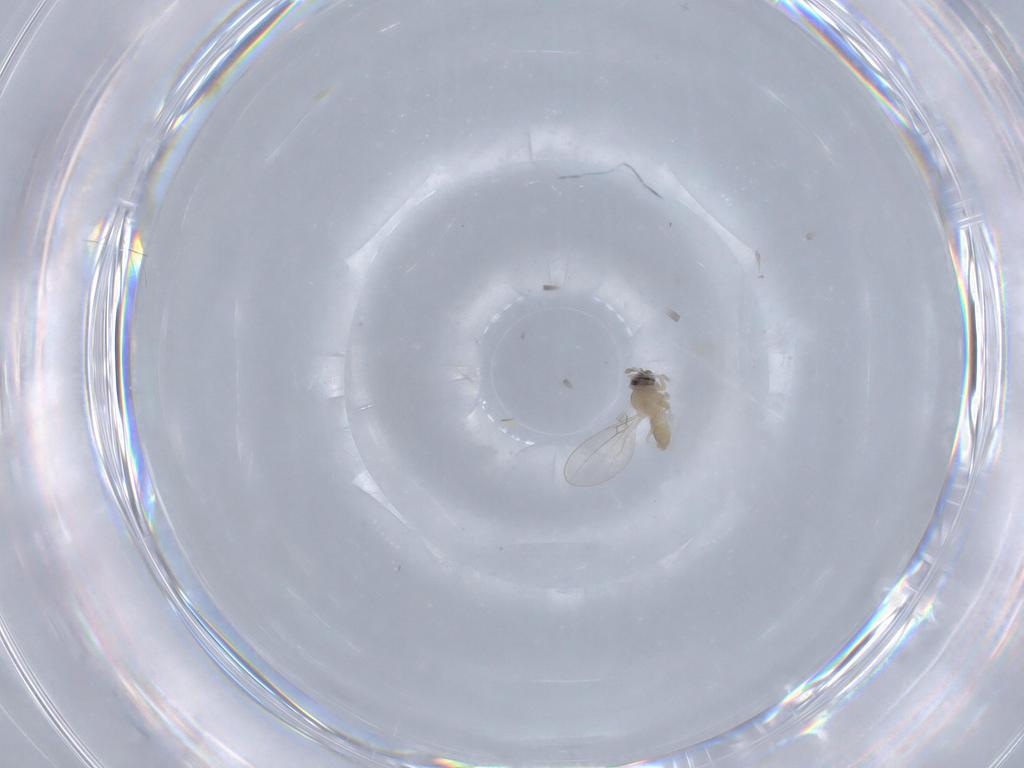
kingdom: Animalia
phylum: Arthropoda
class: Insecta
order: Diptera
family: Cecidomyiidae
